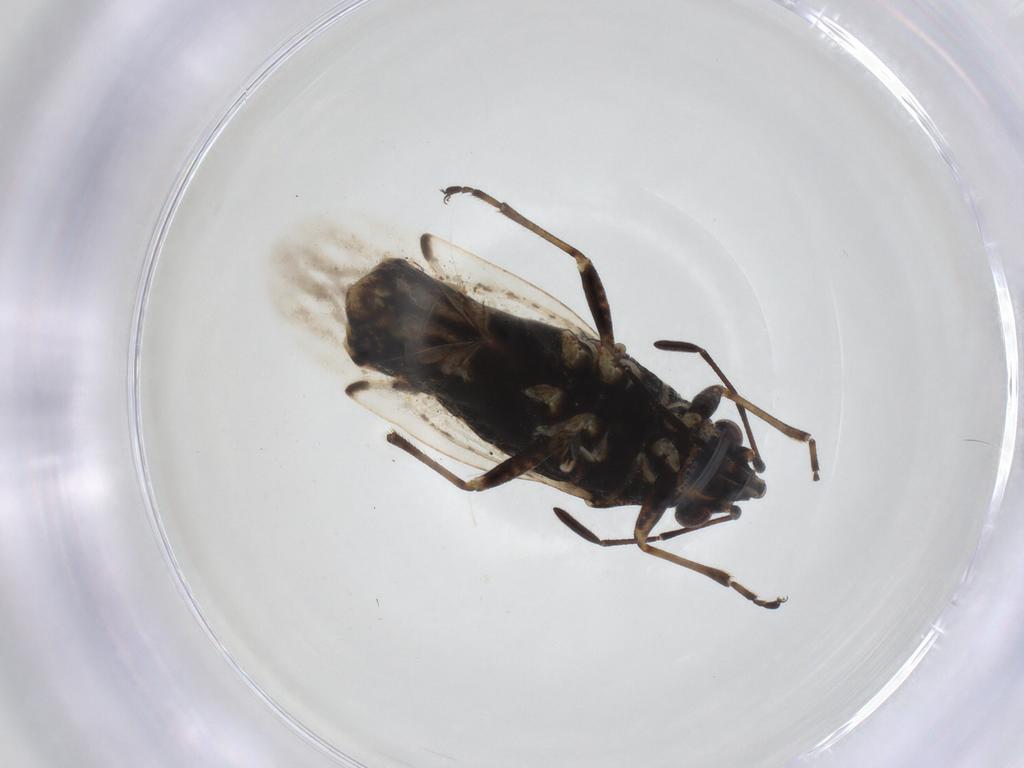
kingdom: Animalia
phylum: Arthropoda
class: Insecta
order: Hemiptera
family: Lygaeidae
